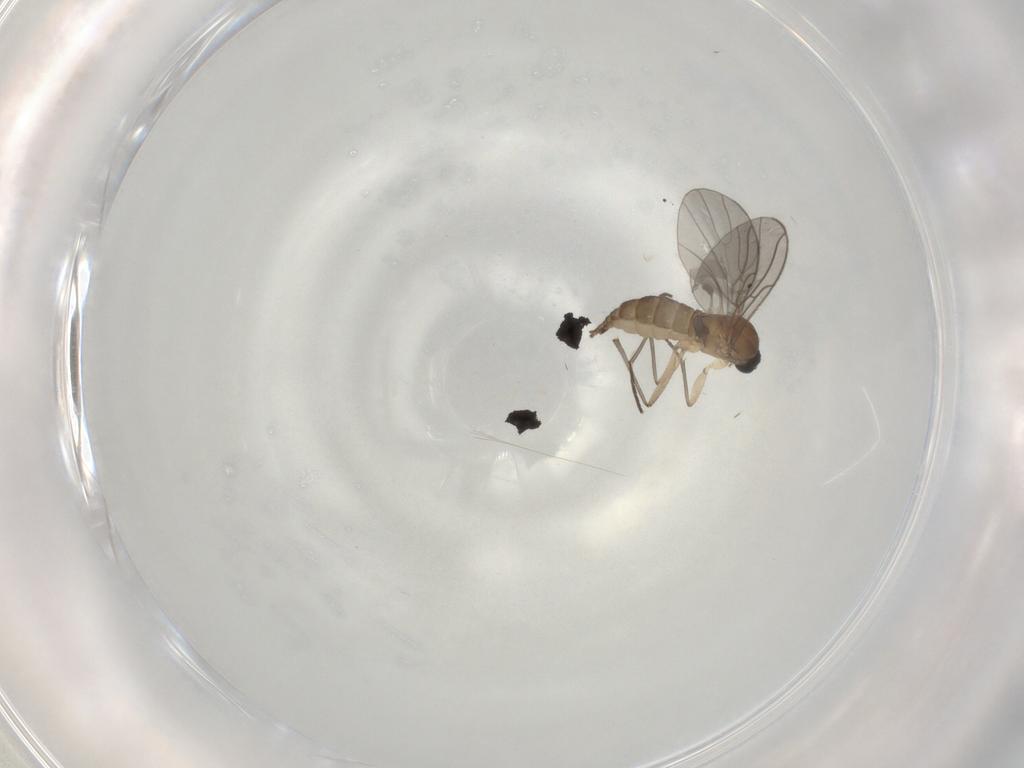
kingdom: Animalia
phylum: Arthropoda
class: Insecta
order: Diptera
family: Sciaridae
